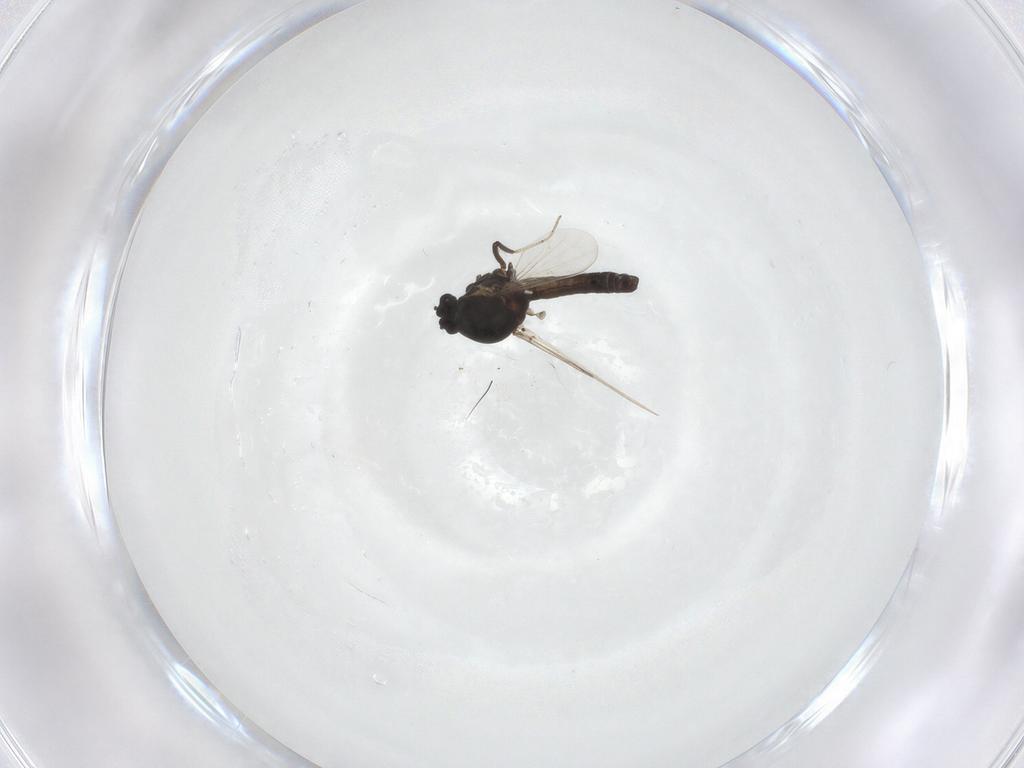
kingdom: Animalia
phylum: Arthropoda
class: Insecta
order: Diptera
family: Ceratopogonidae
